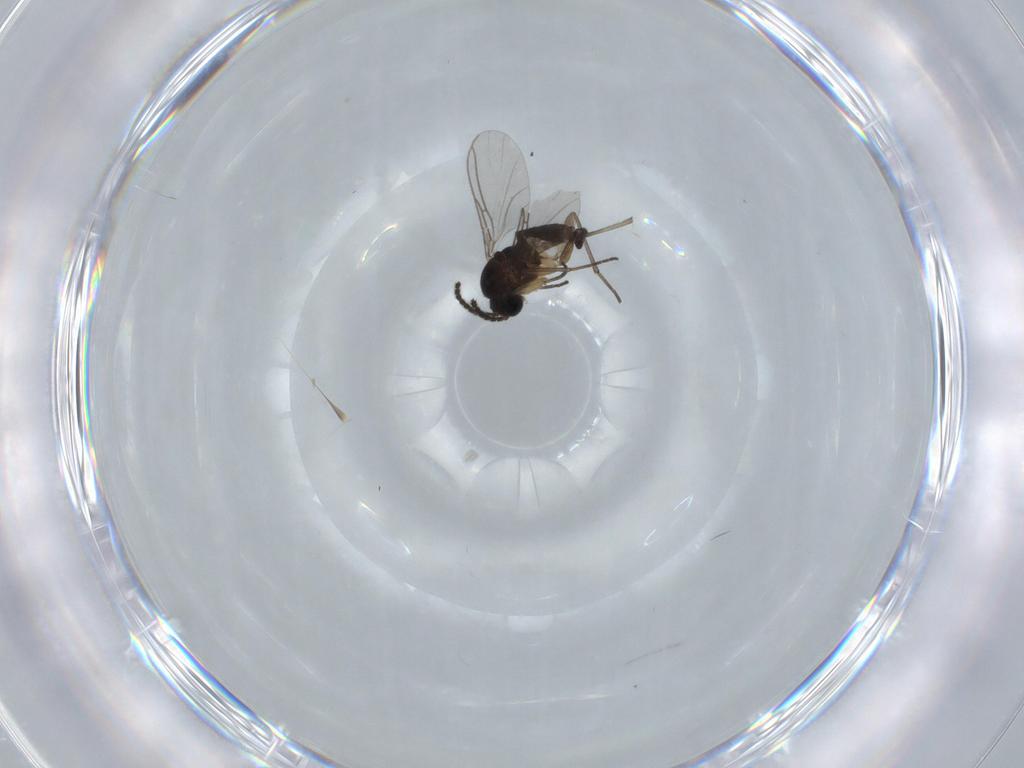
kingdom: Animalia
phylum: Arthropoda
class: Insecta
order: Diptera
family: Sciaridae
